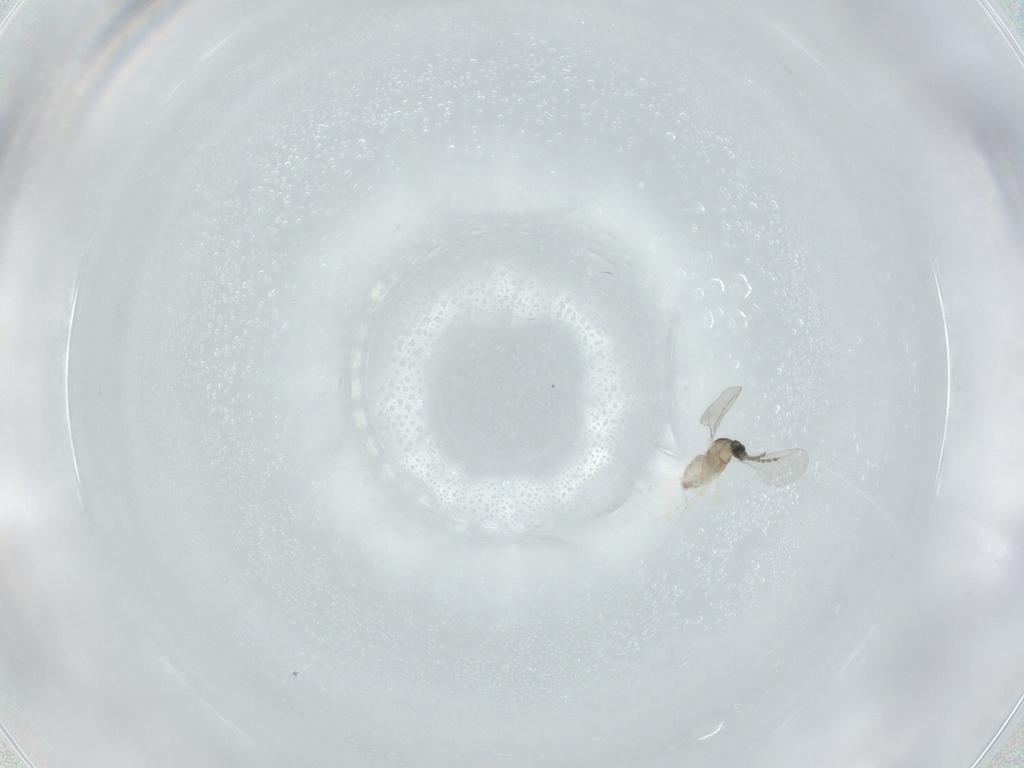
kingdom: Animalia
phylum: Arthropoda
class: Insecta
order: Diptera
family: Cecidomyiidae
